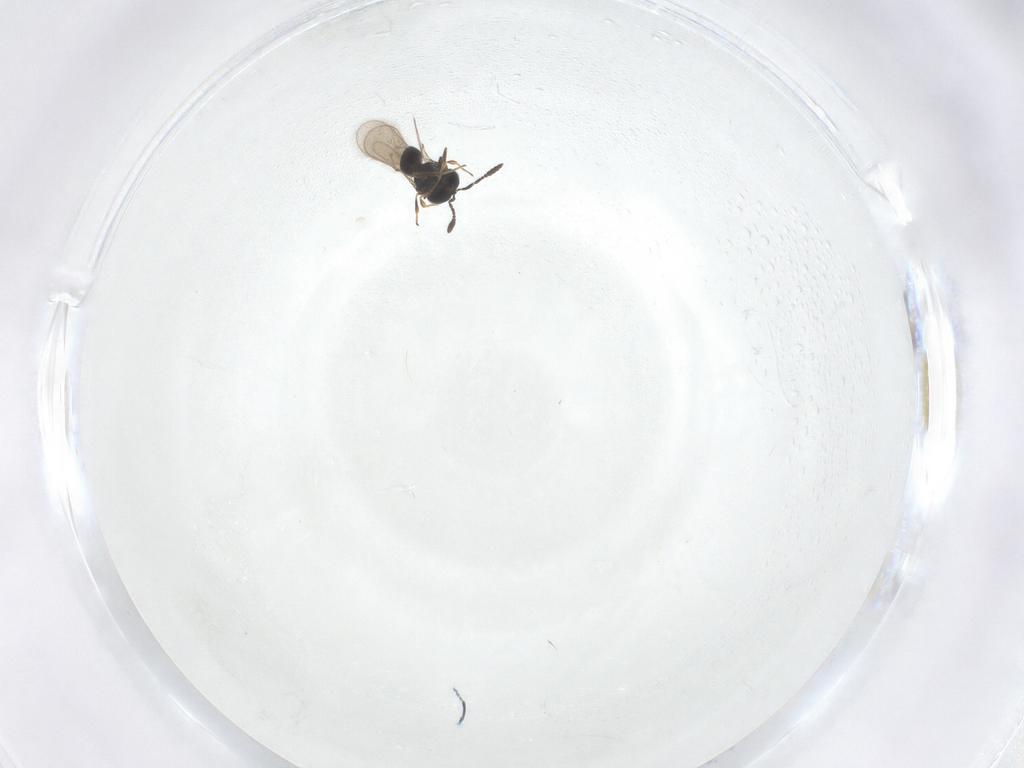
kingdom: Animalia
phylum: Arthropoda
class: Insecta
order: Hymenoptera
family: Scelionidae
